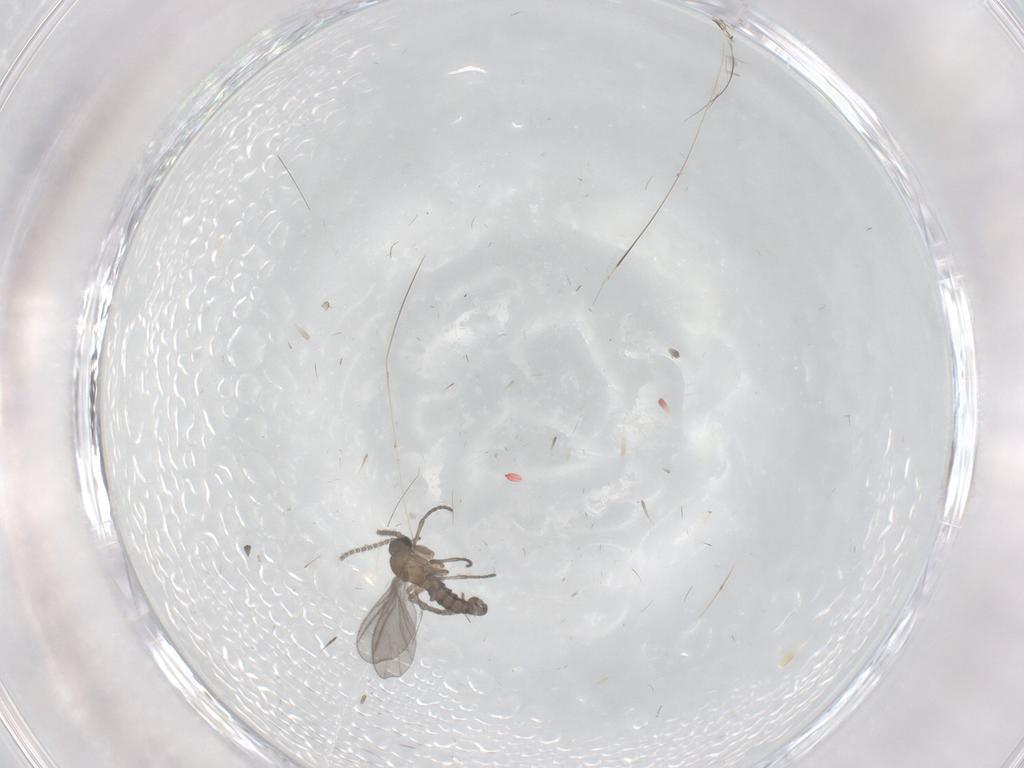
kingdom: Animalia
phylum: Arthropoda
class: Insecta
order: Diptera
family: Sciaridae
